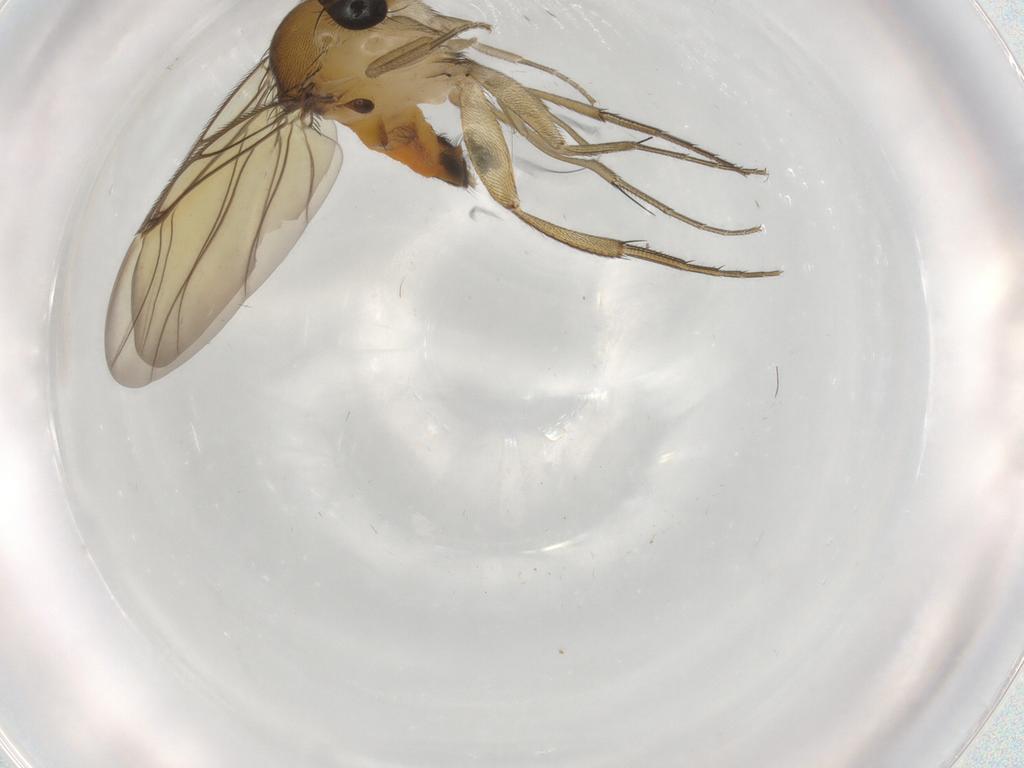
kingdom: Animalia
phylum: Arthropoda
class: Insecta
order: Diptera
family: Phoridae
